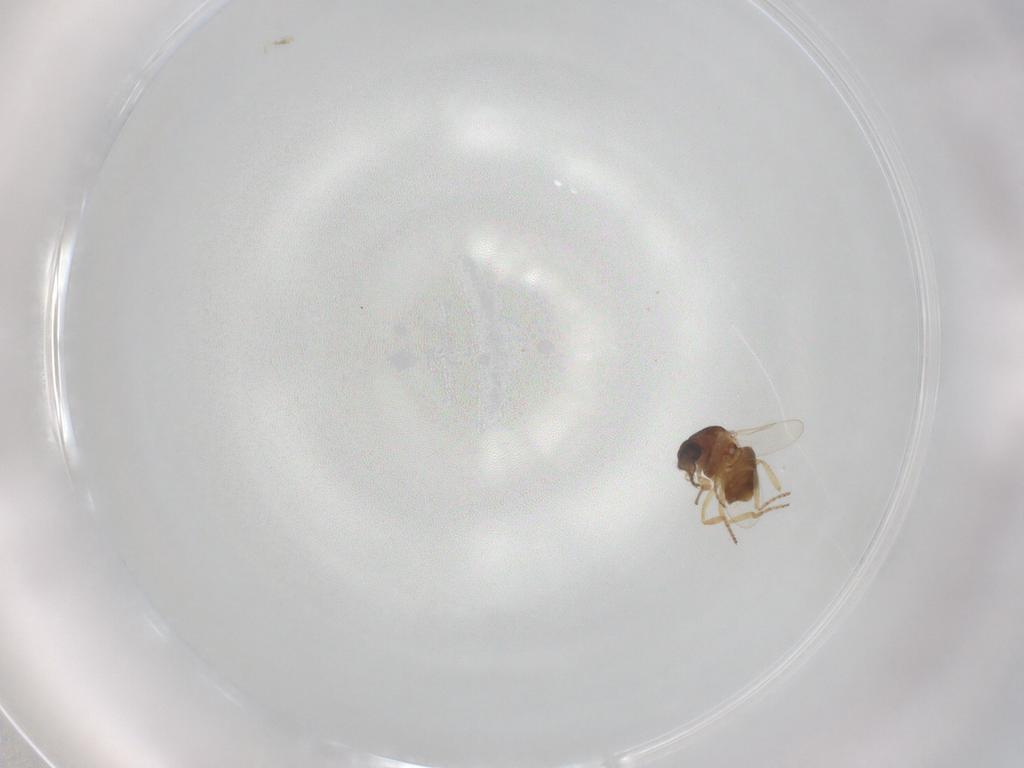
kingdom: Animalia
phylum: Arthropoda
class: Insecta
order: Diptera
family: Ceratopogonidae
